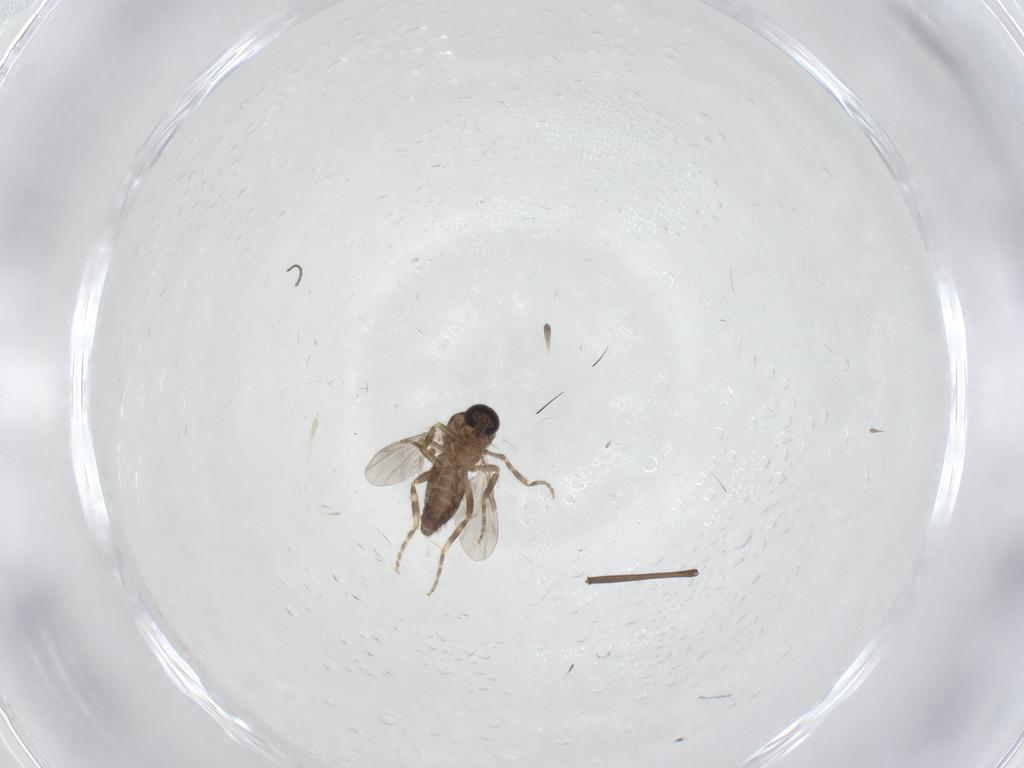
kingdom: Animalia
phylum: Arthropoda
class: Insecta
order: Diptera
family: Ceratopogonidae
